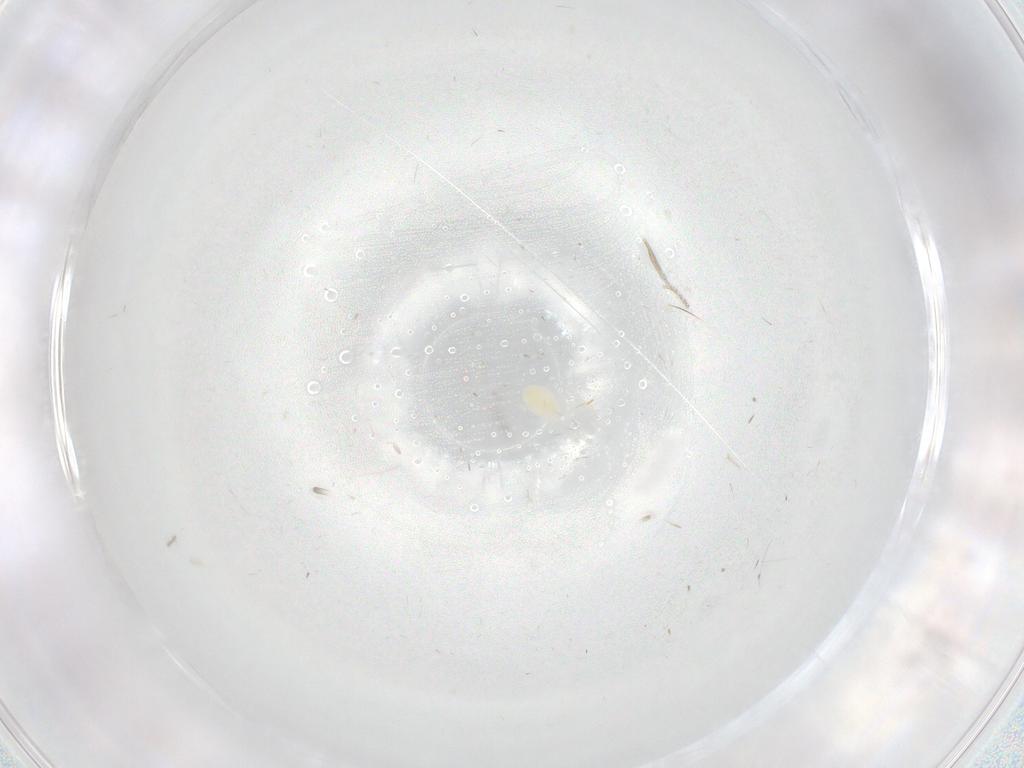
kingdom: Animalia
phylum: Arthropoda
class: Insecta
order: Diptera
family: Chloropidae
